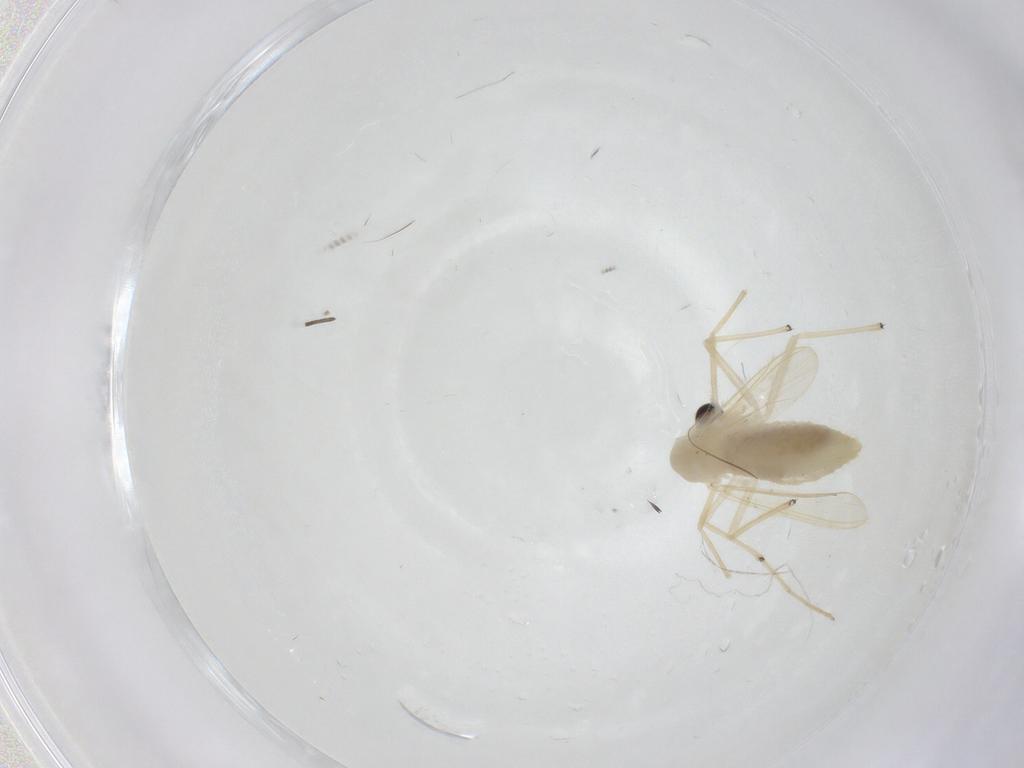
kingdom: Animalia
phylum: Arthropoda
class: Insecta
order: Diptera
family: Chironomidae
